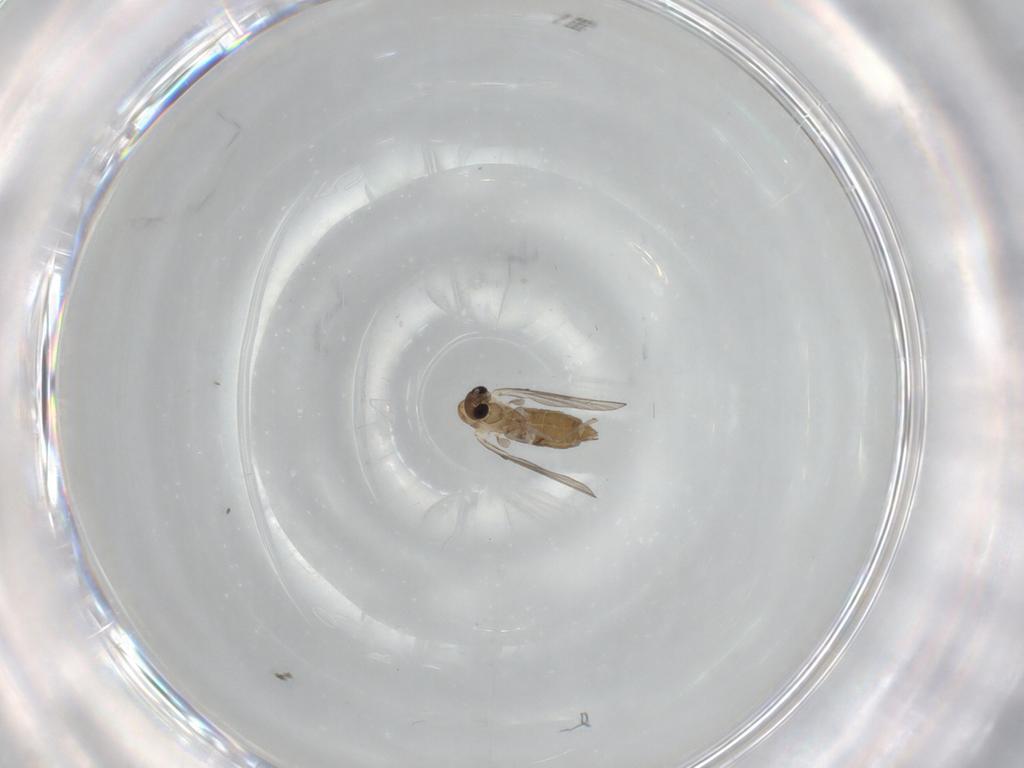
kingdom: Animalia
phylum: Arthropoda
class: Insecta
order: Diptera
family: Psychodidae
